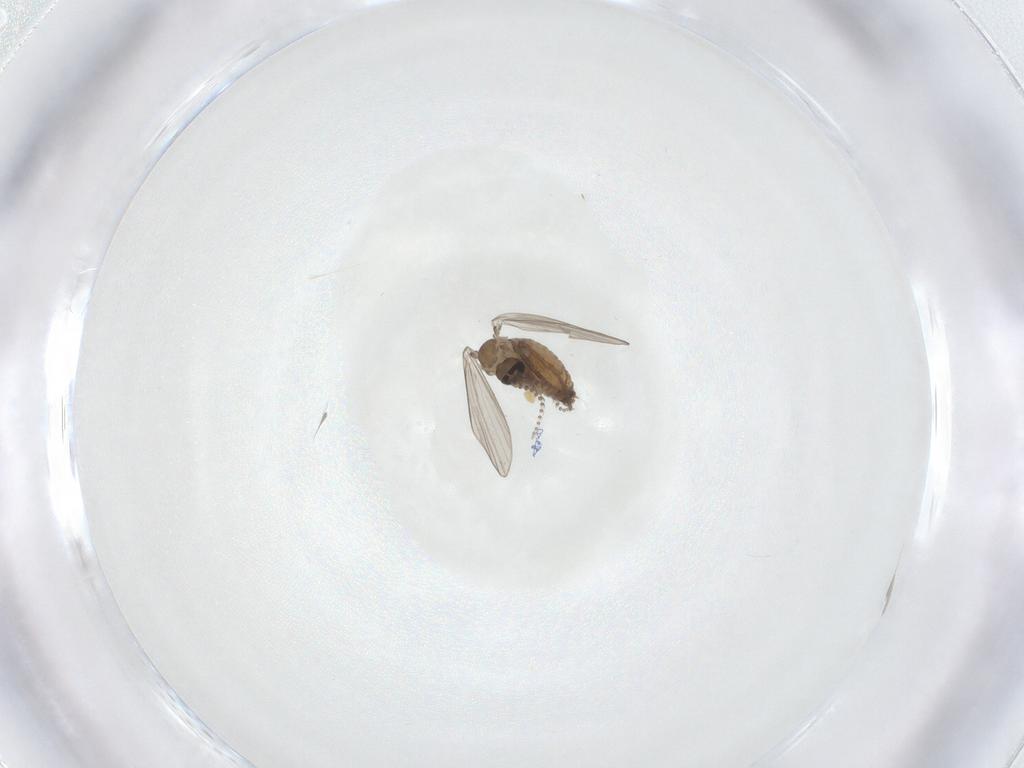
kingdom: Animalia
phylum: Arthropoda
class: Insecta
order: Diptera
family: Psychodidae
